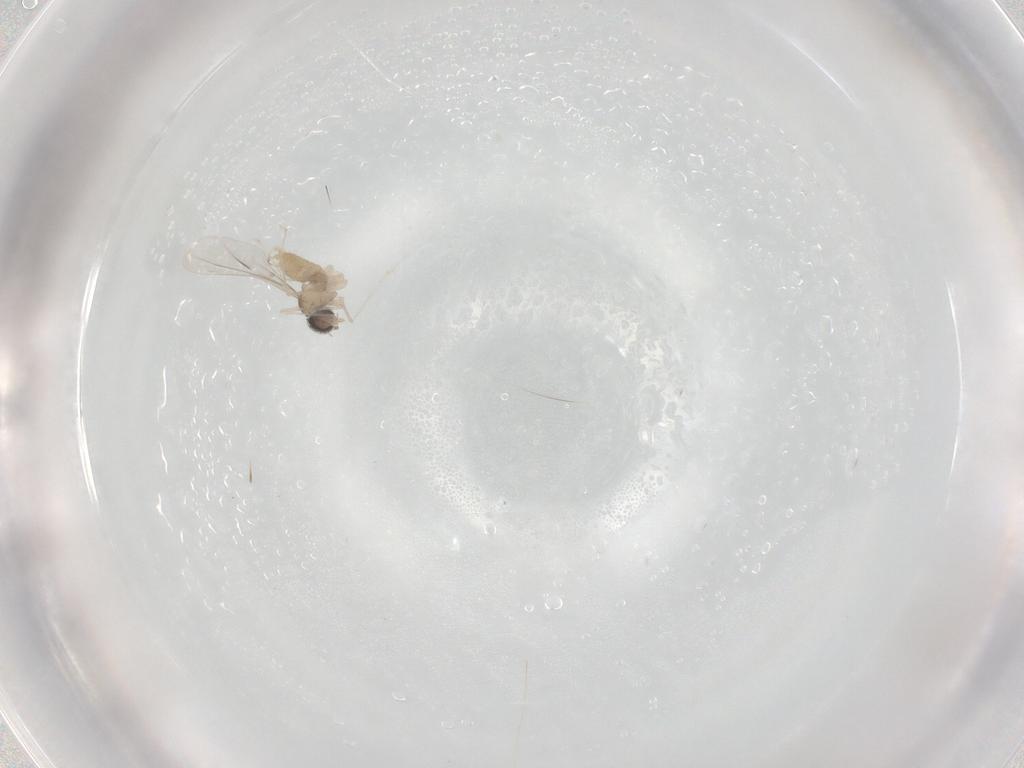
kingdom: Animalia
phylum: Arthropoda
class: Insecta
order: Diptera
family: Cecidomyiidae
